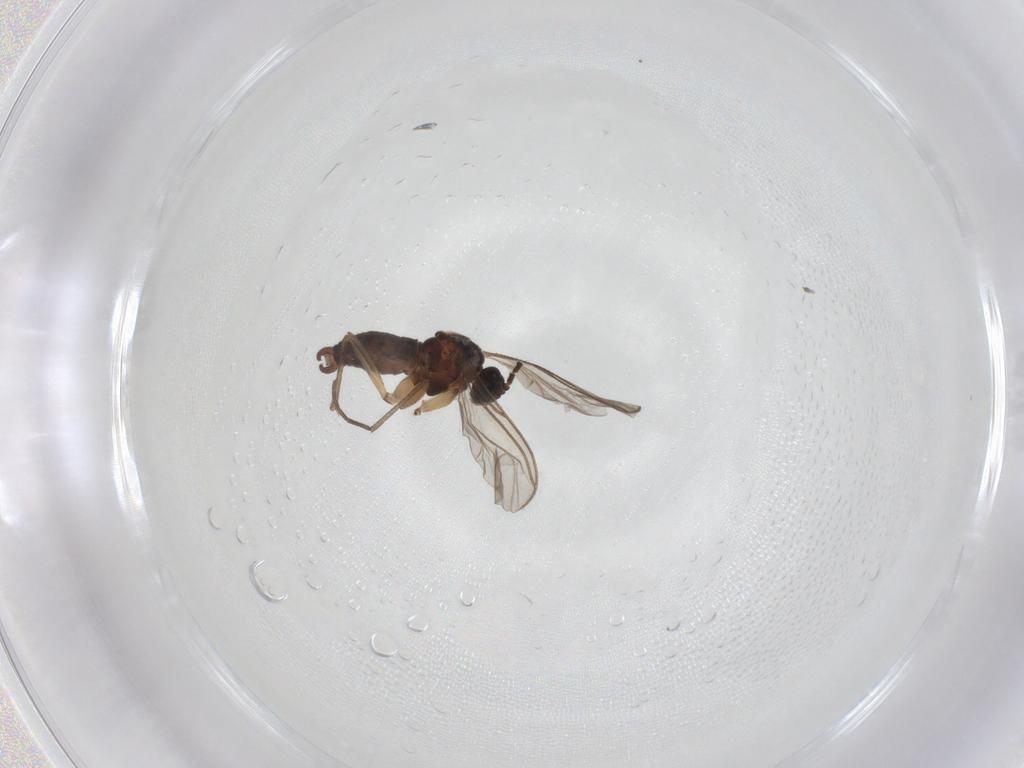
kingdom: Animalia
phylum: Arthropoda
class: Insecta
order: Diptera
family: Sciaridae
